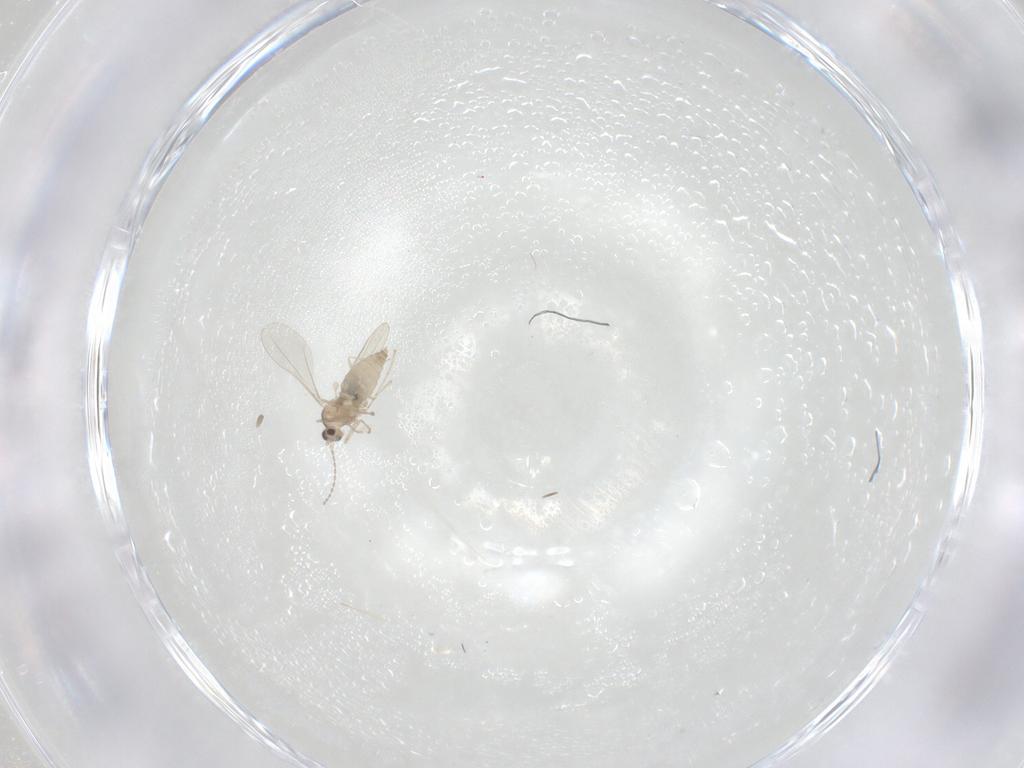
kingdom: Animalia
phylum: Arthropoda
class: Insecta
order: Diptera
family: Cecidomyiidae
